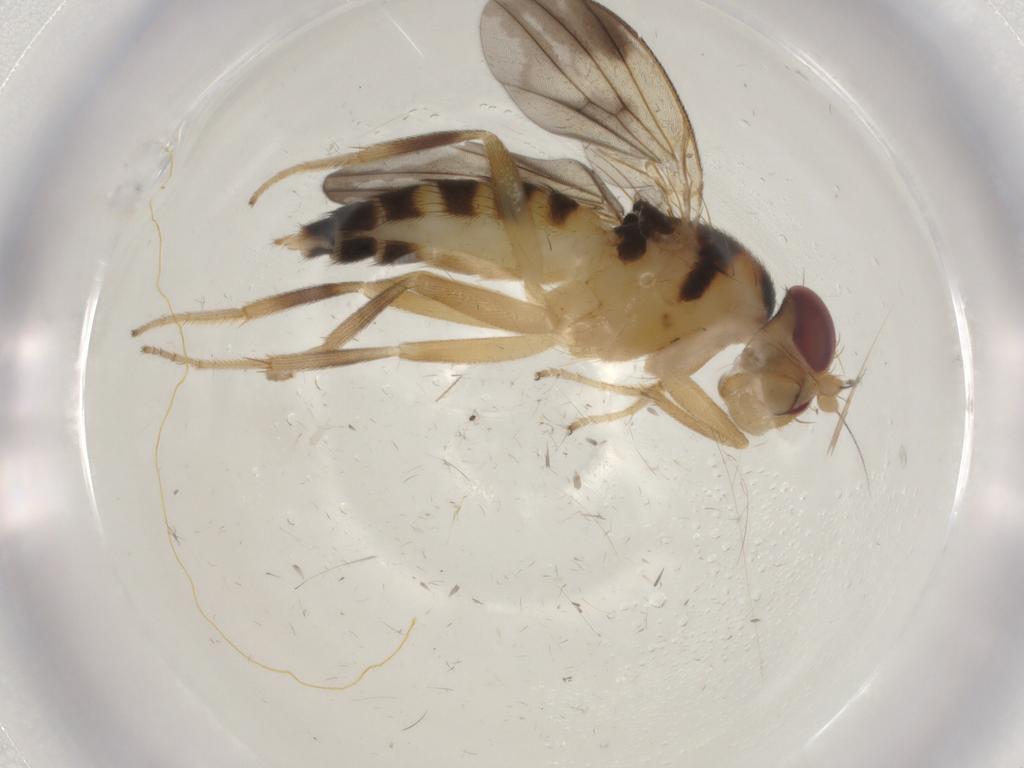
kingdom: Animalia
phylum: Arthropoda
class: Insecta
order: Diptera
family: Clusiidae
